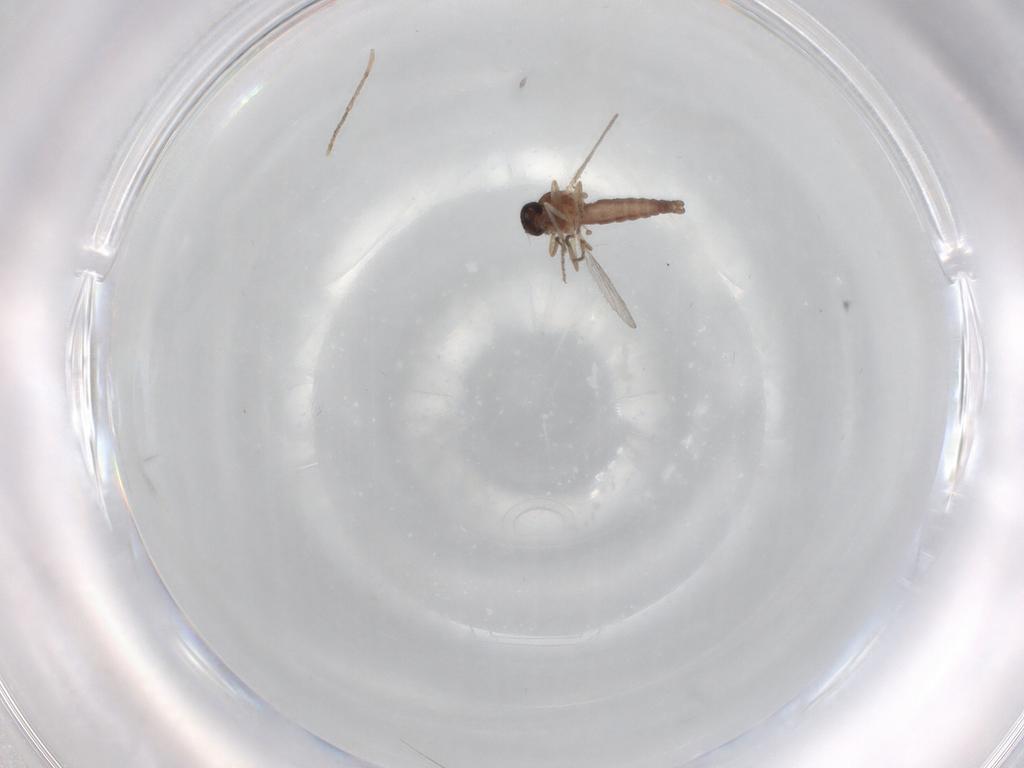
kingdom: Animalia
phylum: Arthropoda
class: Insecta
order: Diptera
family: Ceratopogonidae
